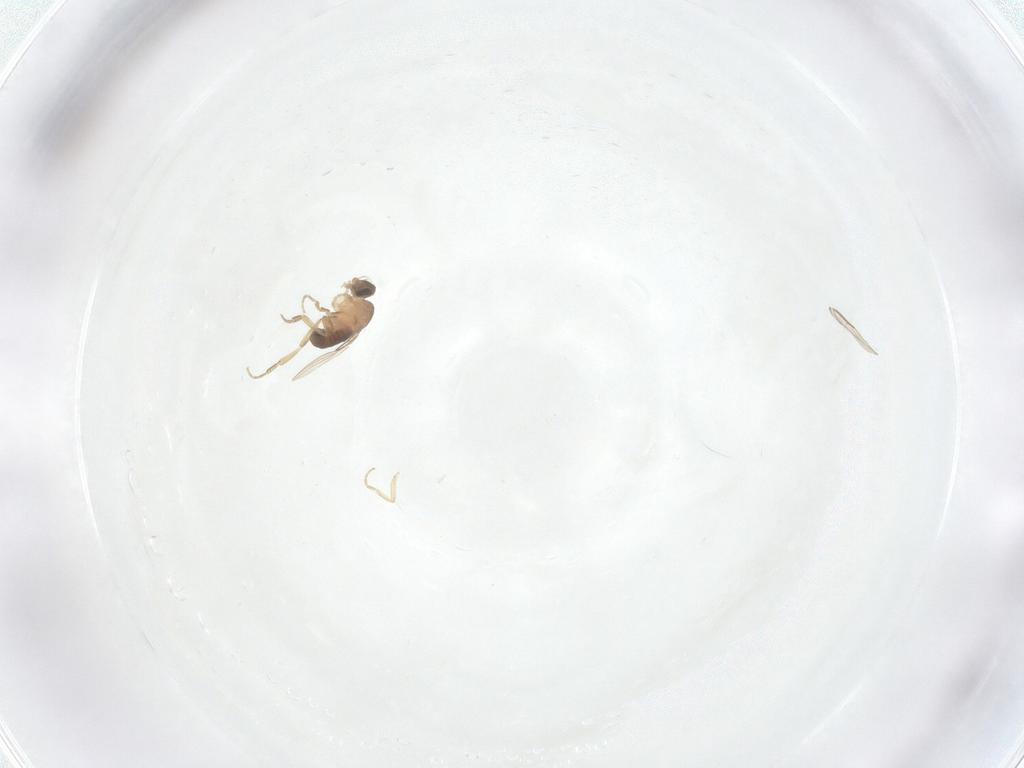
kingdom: Animalia
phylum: Arthropoda
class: Insecta
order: Diptera
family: Phoridae
